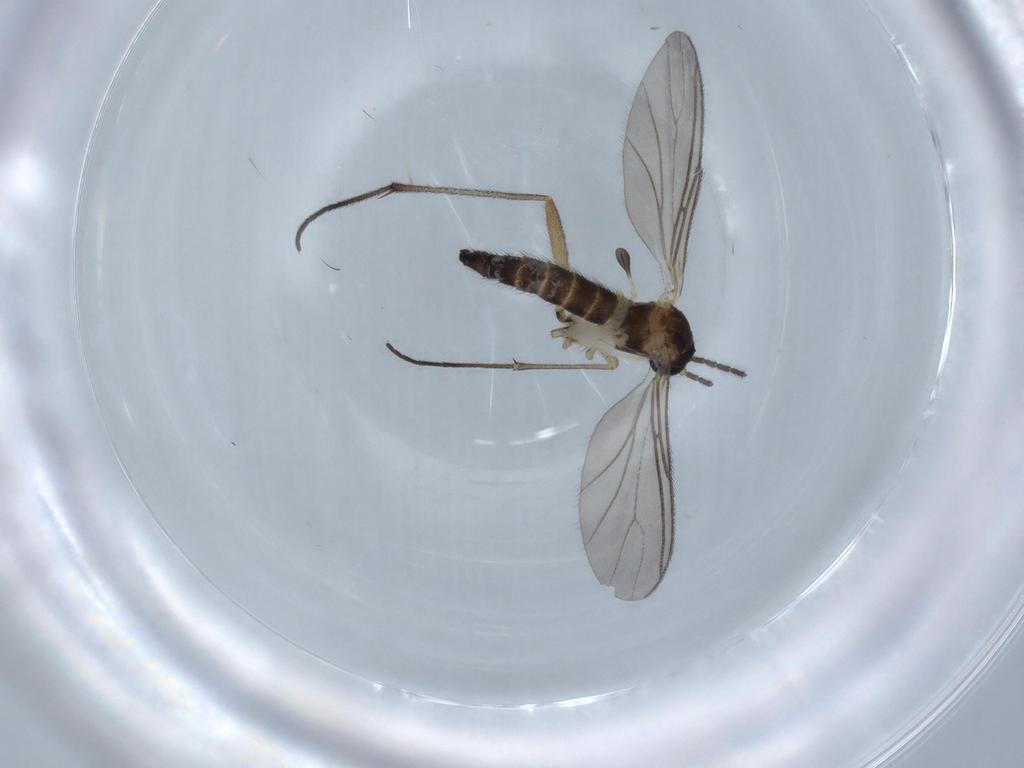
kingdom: Animalia
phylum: Arthropoda
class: Insecta
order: Diptera
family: Sciaridae
